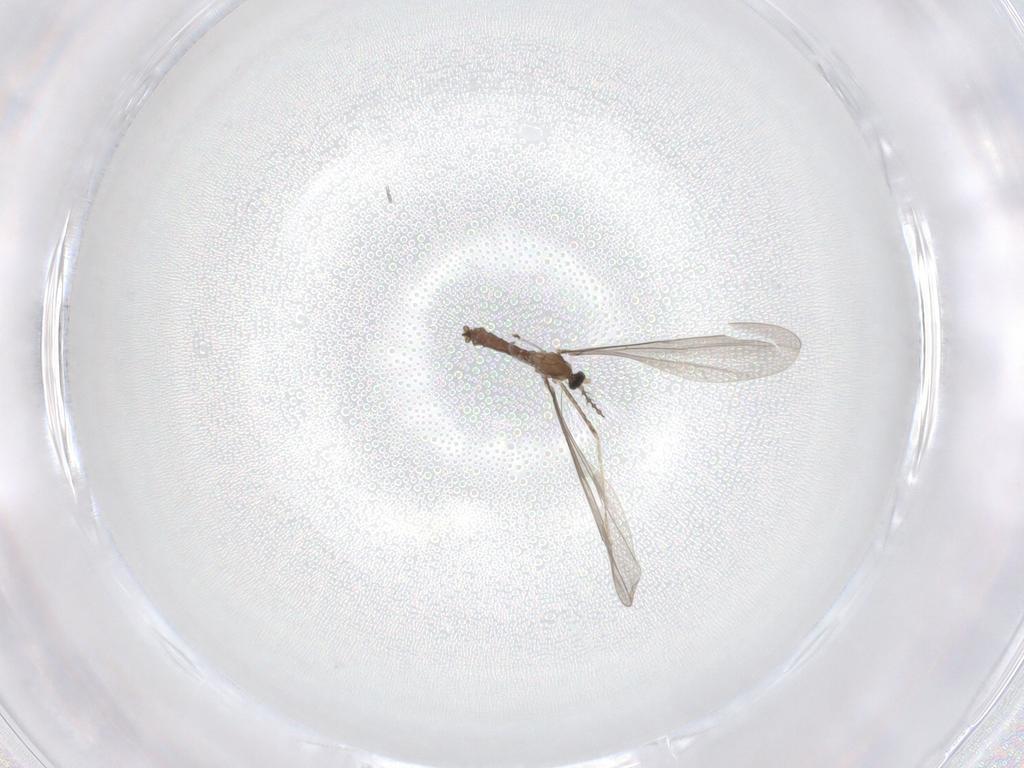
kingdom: Animalia
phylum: Arthropoda
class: Insecta
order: Diptera
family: Cecidomyiidae
